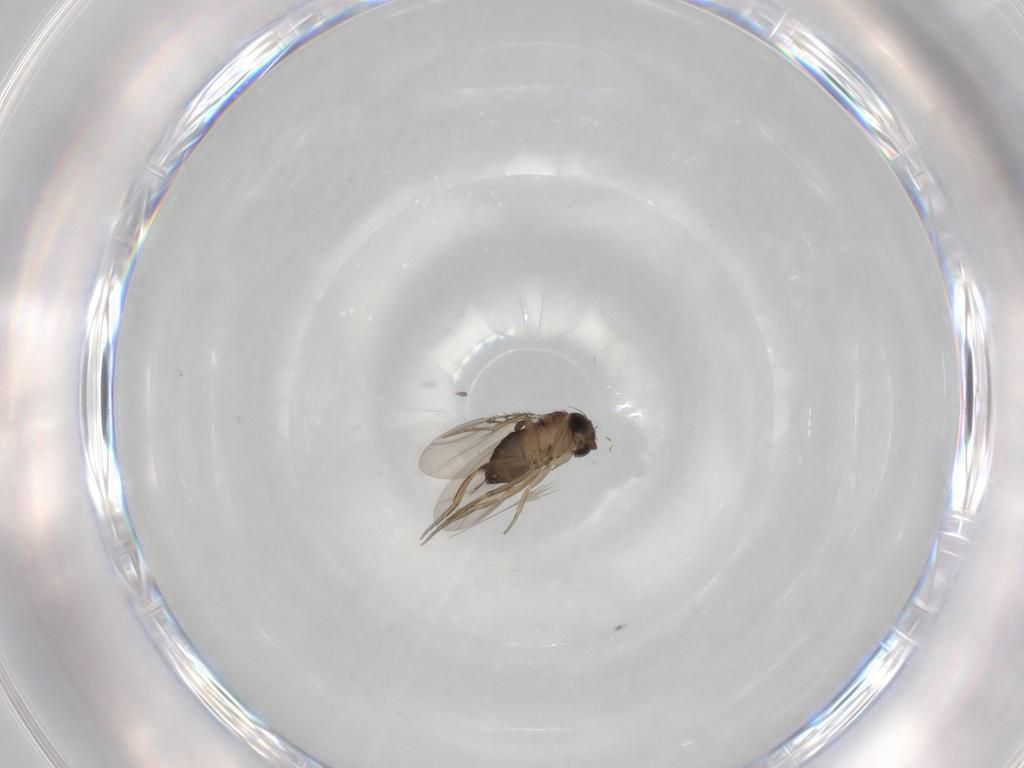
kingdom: Animalia
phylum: Arthropoda
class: Insecta
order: Diptera
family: Phoridae
